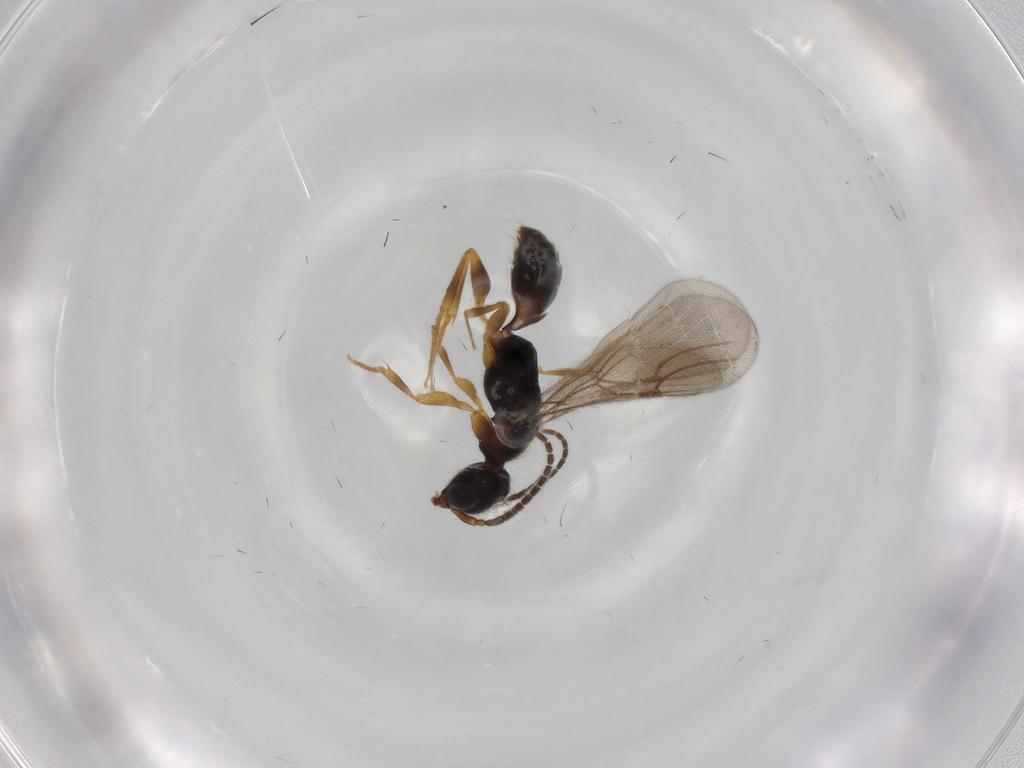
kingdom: Animalia
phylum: Arthropoda
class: Insecta
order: Hymenoptera
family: Bethylidae
